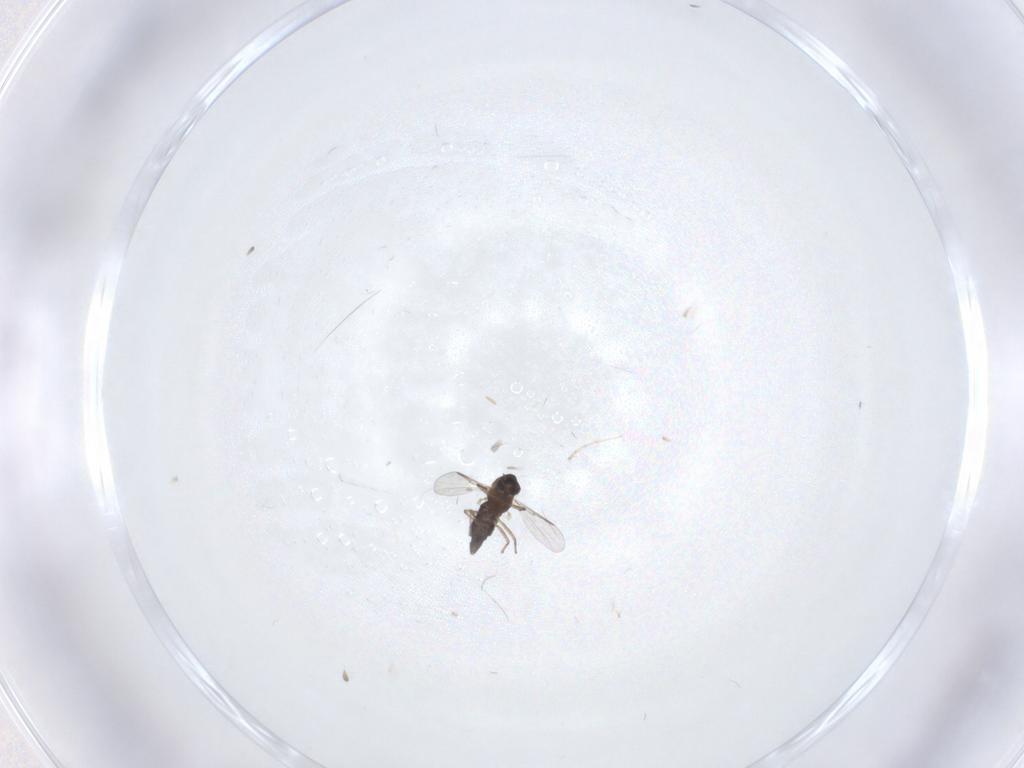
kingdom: Animalia
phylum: Arthropoda
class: Insecta
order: Diptera
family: Chironomidae
